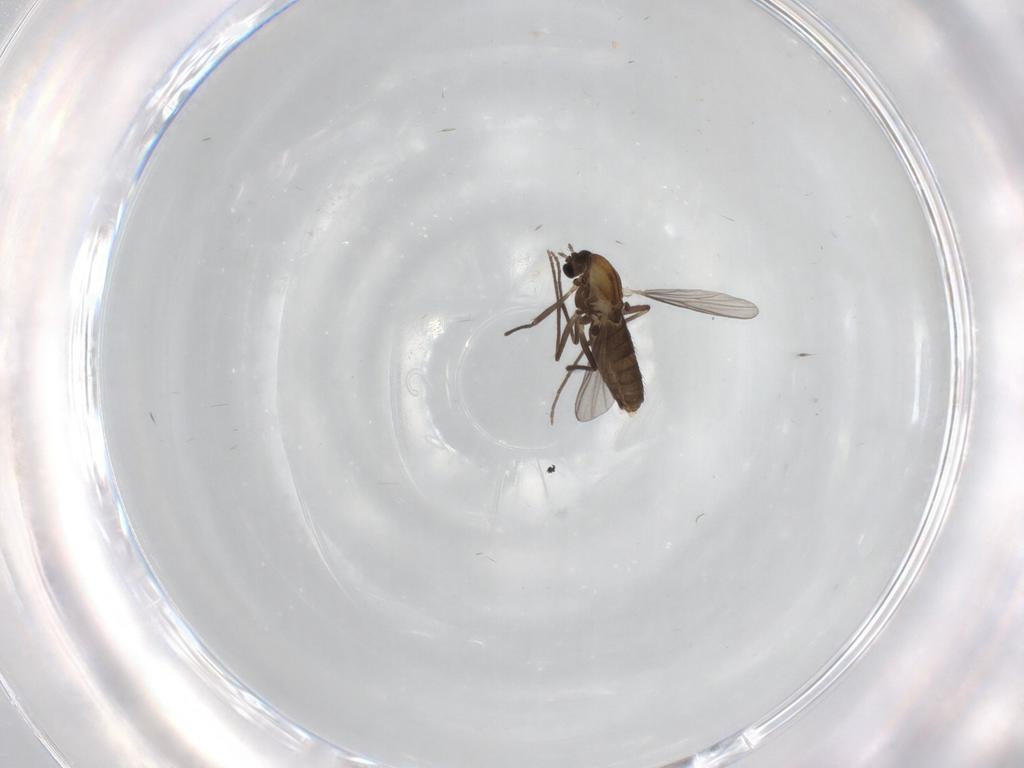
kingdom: Animalia
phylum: Arthropoda
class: Insecta
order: Diptera
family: Chironomidae
